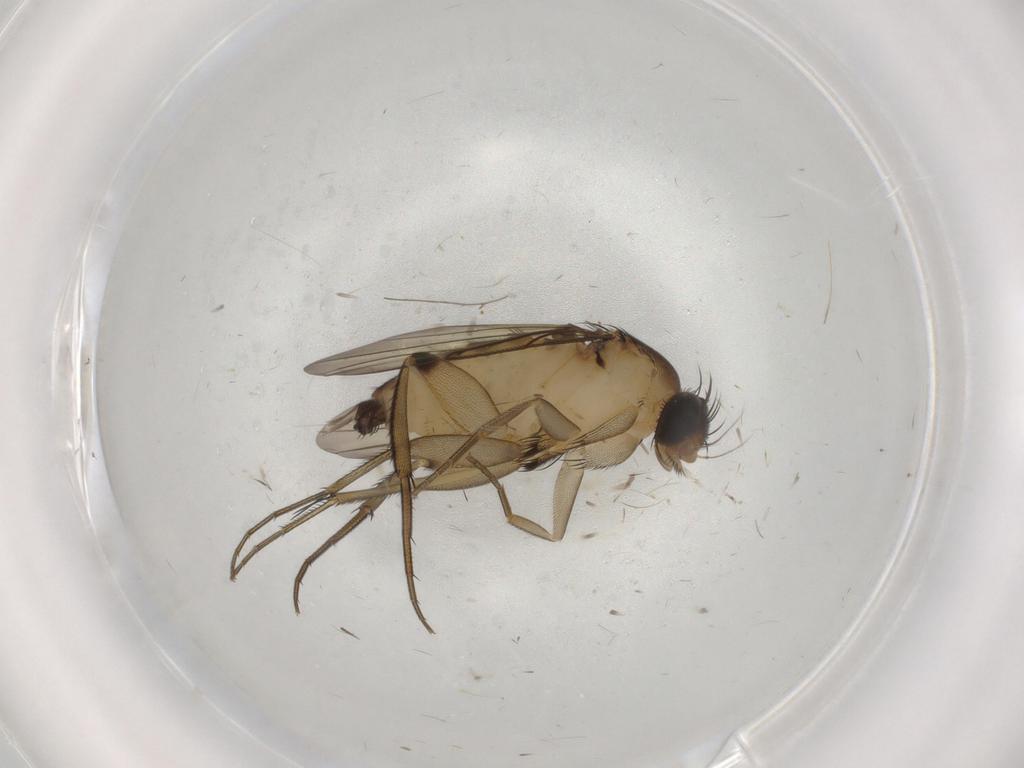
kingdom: Animalia
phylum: Arthropoda
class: Insecta
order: Diptera
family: Phoridae
